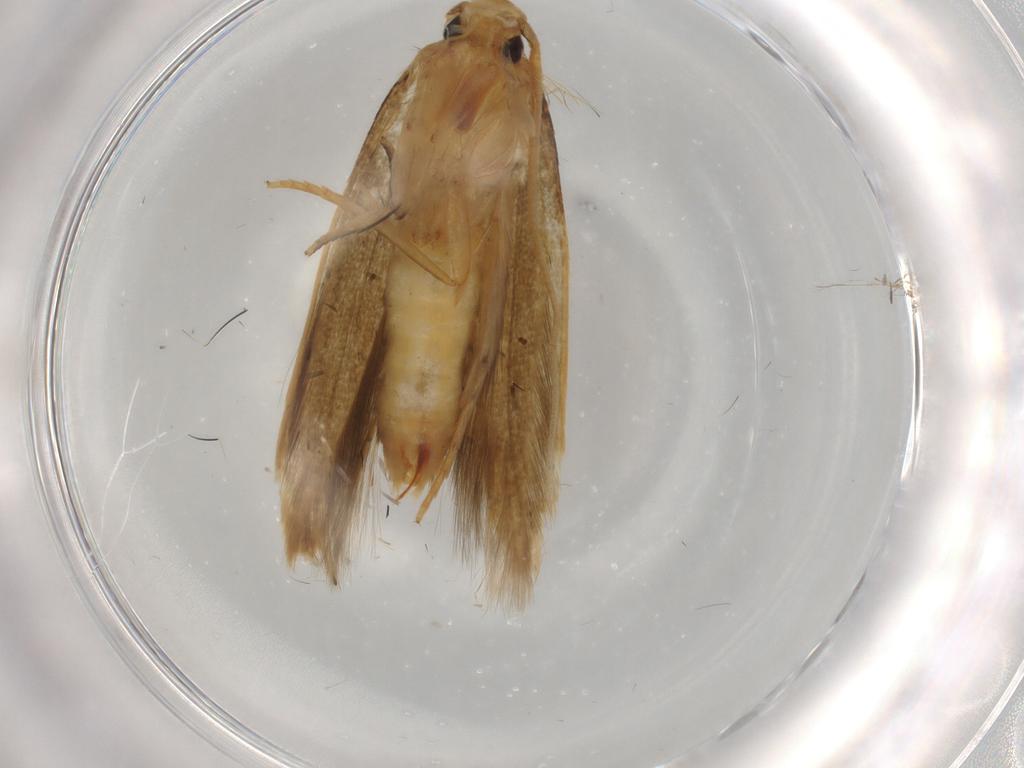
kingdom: Animalia
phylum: Arthropoda
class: Insecta
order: Lepidoptera
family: Tineidae
